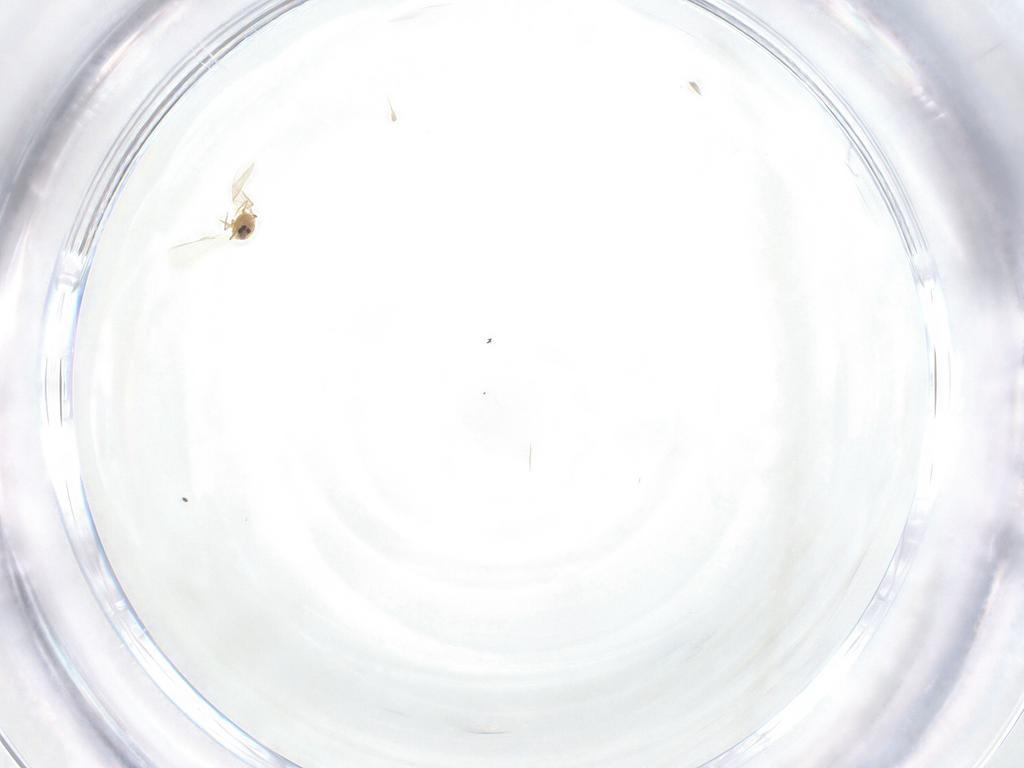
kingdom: Animalia
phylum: Arthropoda
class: Insecta
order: Hemiptera
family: Diaspididae
